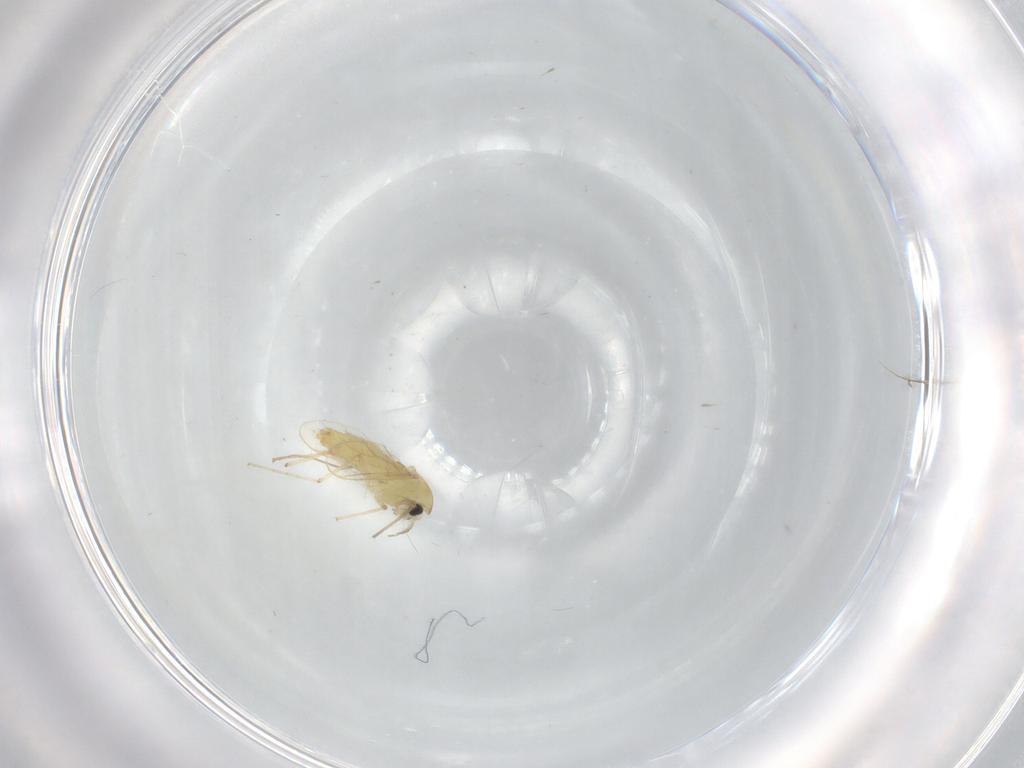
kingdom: Animalia
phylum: Arthropoda
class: Insecta
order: Diptera
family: Chironomidae
